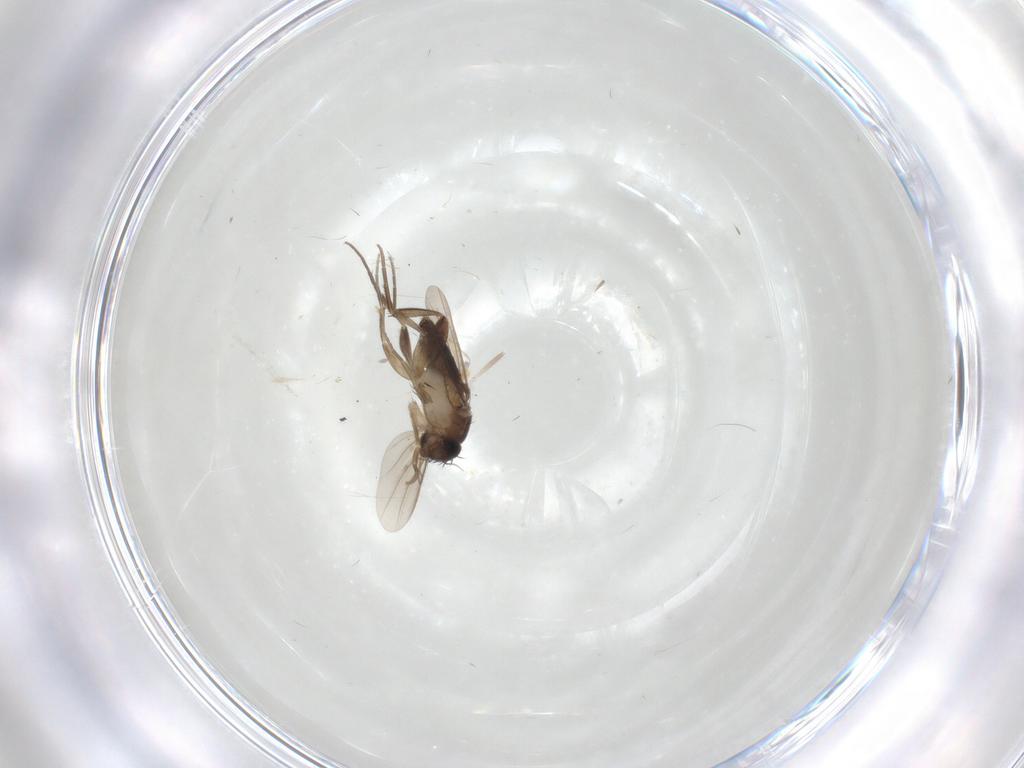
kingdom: Animalia
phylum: Arthropoda
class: Insecta
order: Diptera
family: Phoridae
